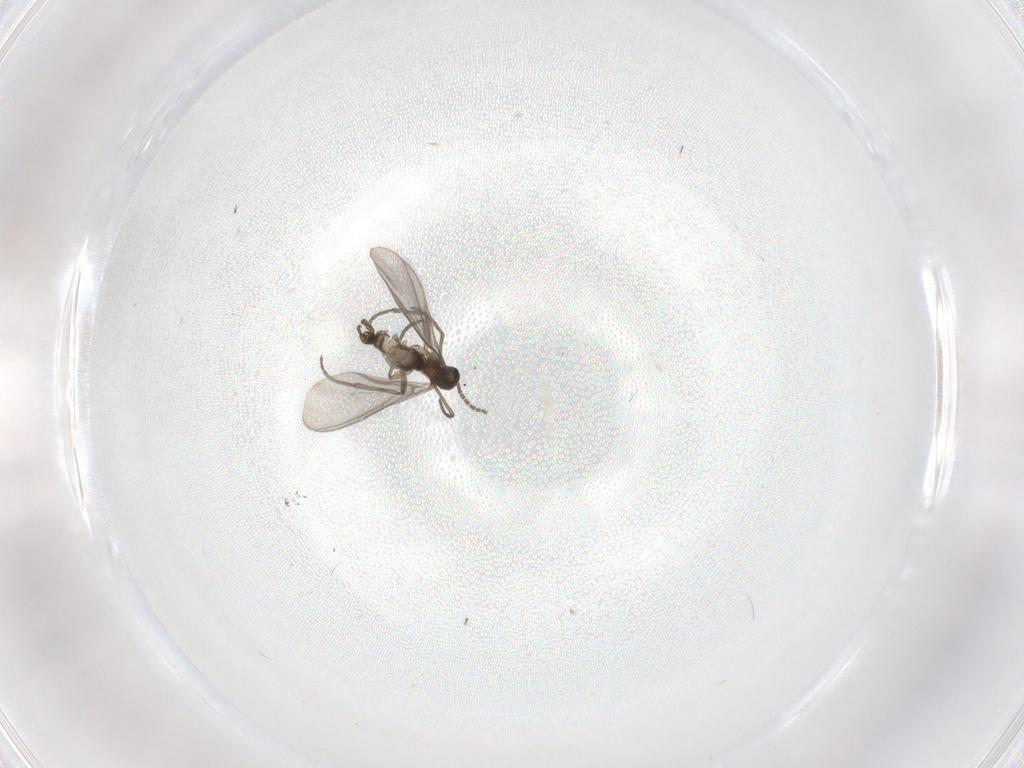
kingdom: Animalia
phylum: Arthropoda
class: Insecta
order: Diptera
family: Sciaridae
